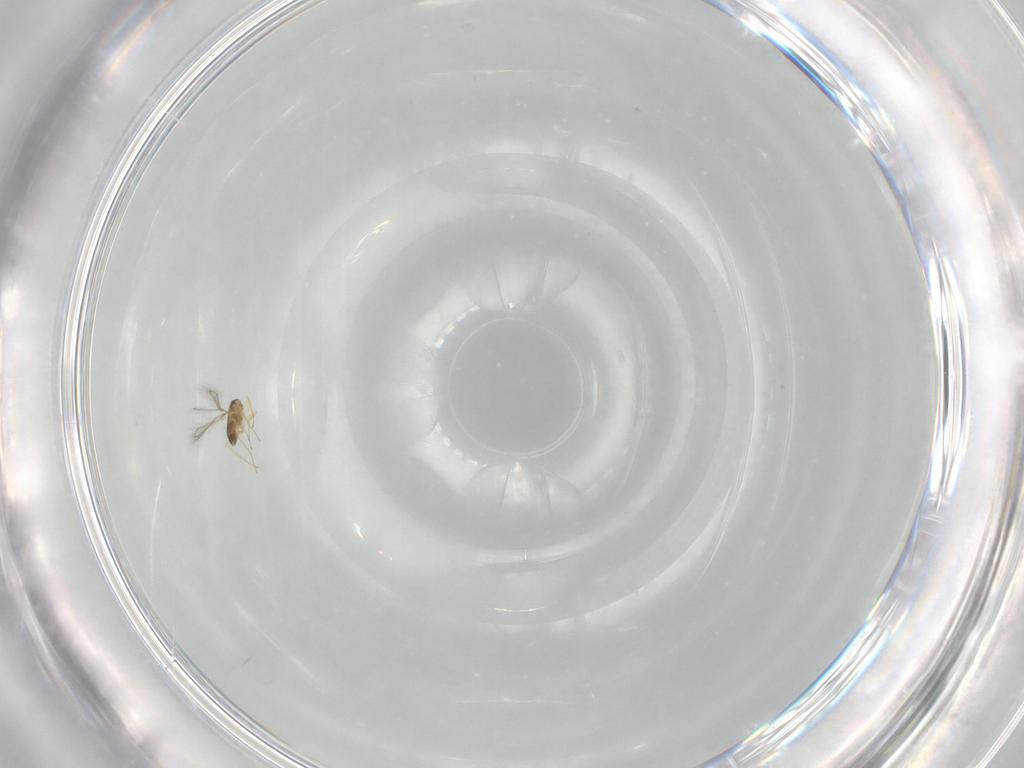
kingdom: Animalia
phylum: Arthropoda
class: Insecta
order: Hymenoptera
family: Mymaridae
